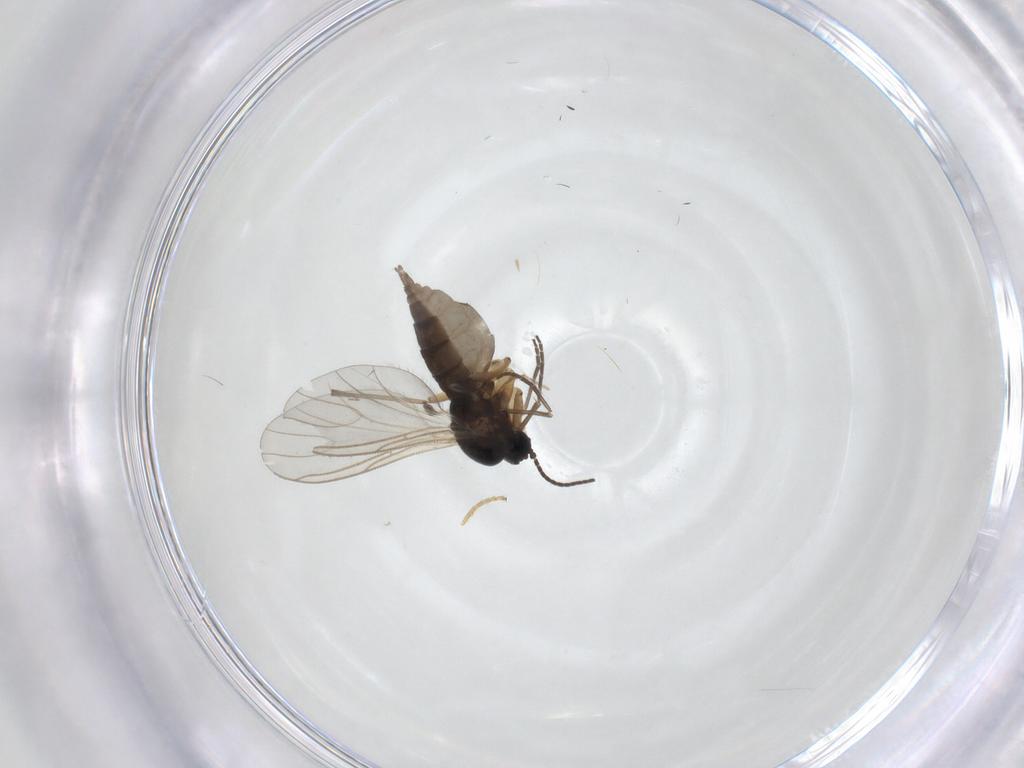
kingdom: Animalia
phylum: Arthropoda
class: Insecta
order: Diptera
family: Sciaridae
